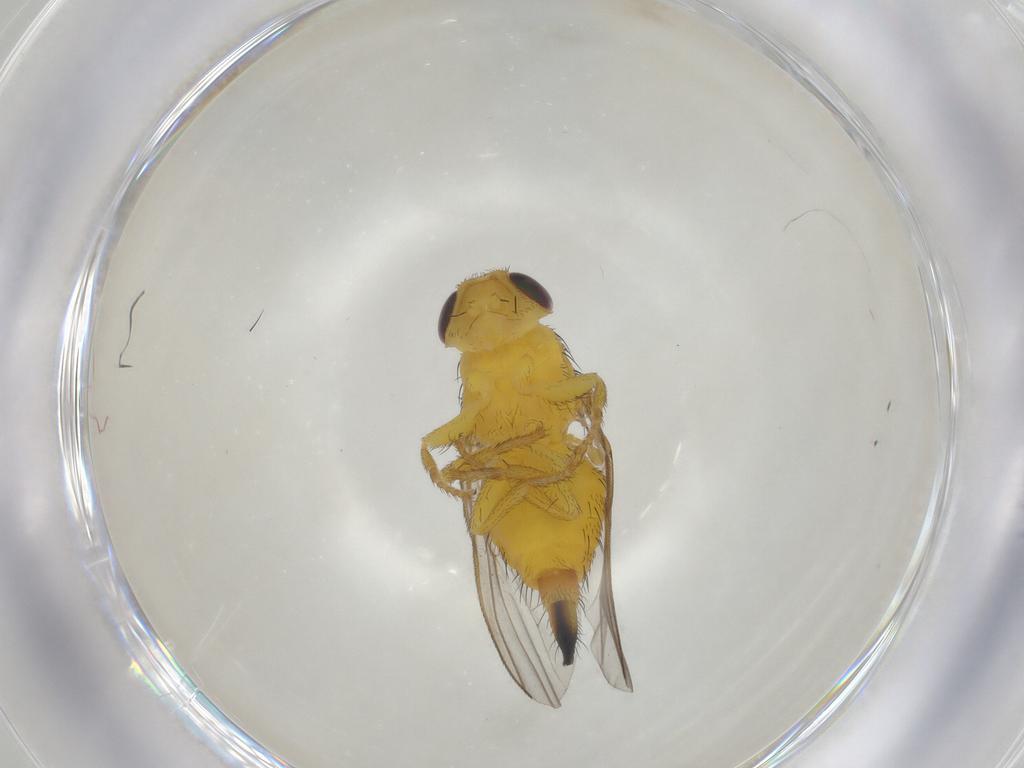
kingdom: Animalia
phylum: Arthropoda
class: Insecta
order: Diptera
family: Fergusoninidae
